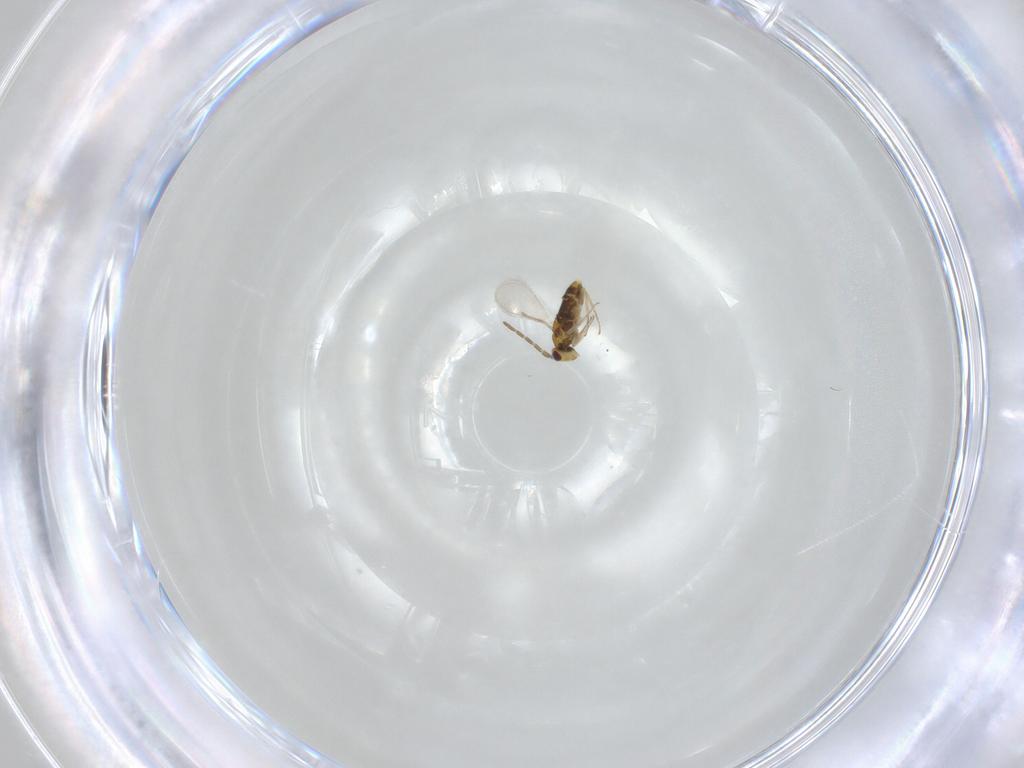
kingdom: Animalia
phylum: Arthropoda
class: Insecta
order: Hymenoptera
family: Aphelinidae
